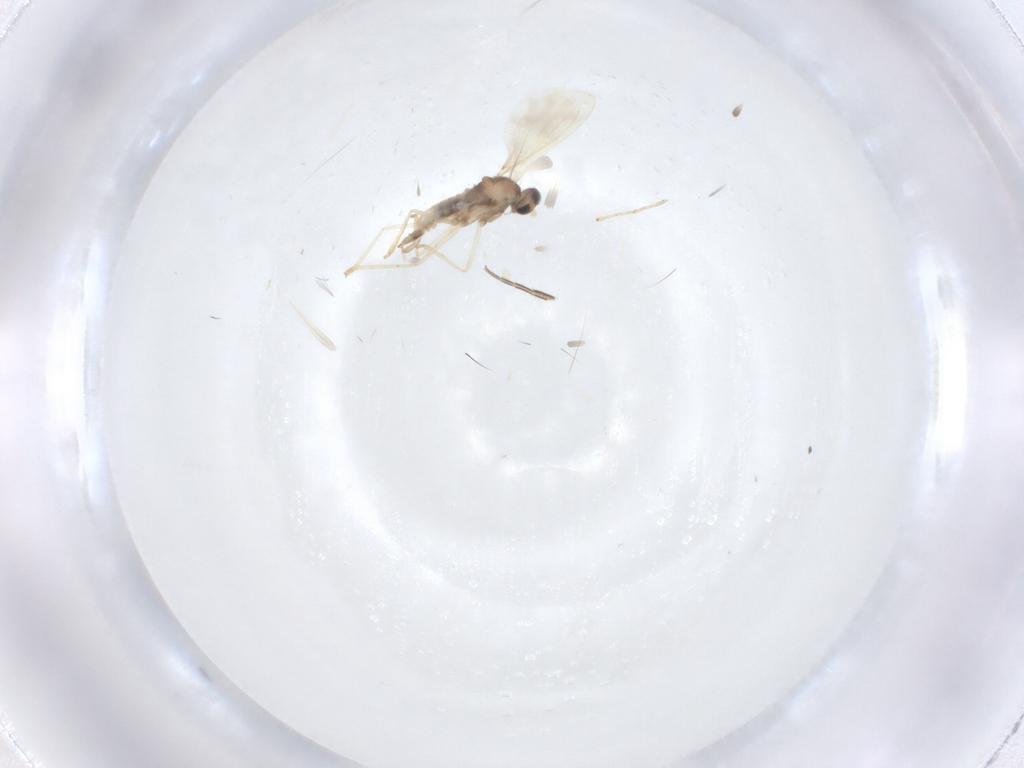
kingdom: Animalia
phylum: Arthropoda
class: Insecta
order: Diptera
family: Cecidomyiidae
